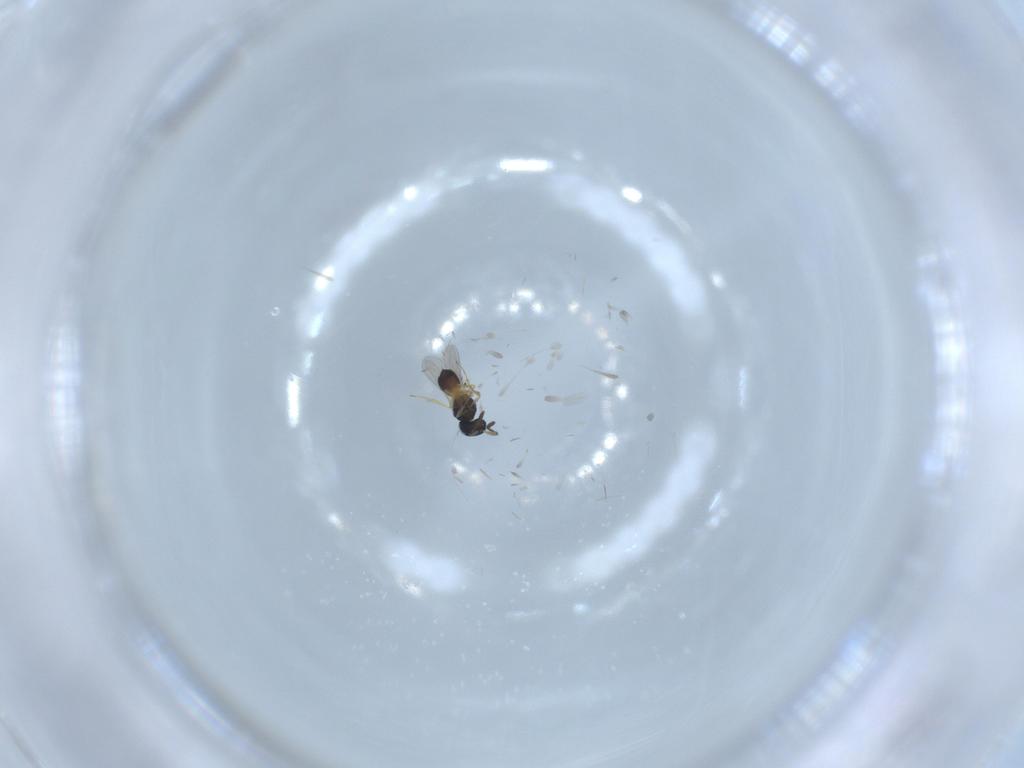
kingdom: Animalia
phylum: Arthropoda
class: Insecta
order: Hymenoptera
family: Scelionidae
